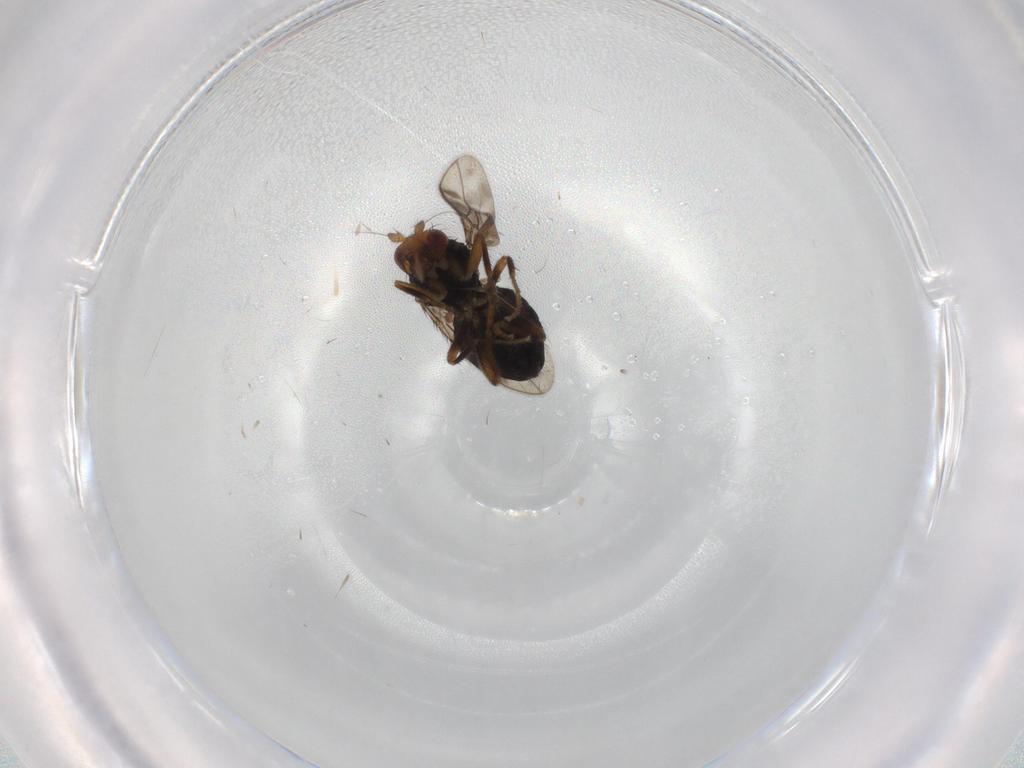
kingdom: Animalia
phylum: Arthropoda
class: Insecta
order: Diptera
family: Sphaeroceridae
